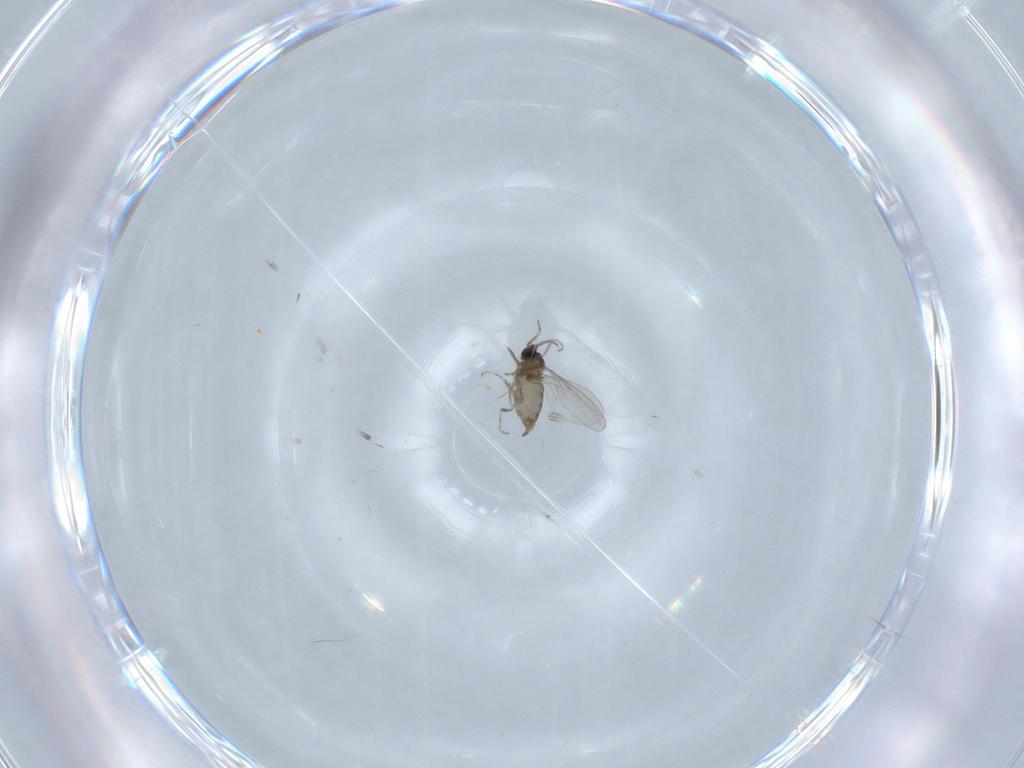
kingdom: Animalia
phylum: Arthropoda
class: Insecta
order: Diptera
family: Cecidomyiidae
